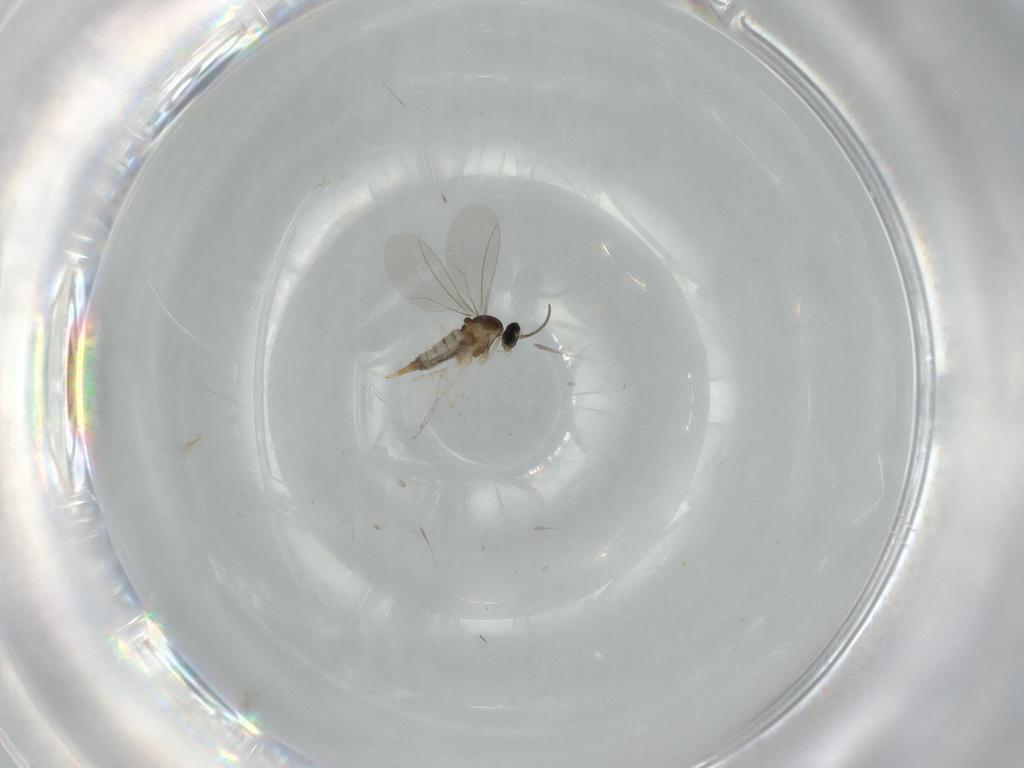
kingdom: Animalia
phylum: Arthropoda
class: Insecta
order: Diptera
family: Cecidomyiidae
